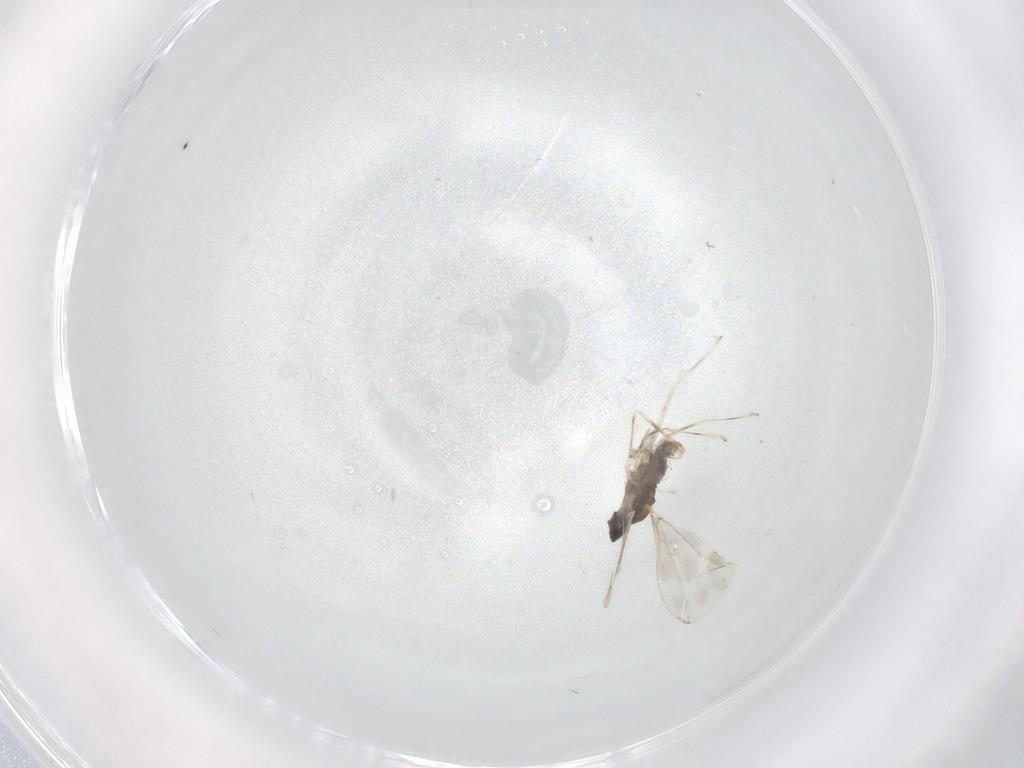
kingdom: Animalia
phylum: Arthropoda
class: Insecta
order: Diptera
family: Cecidomyiidae
